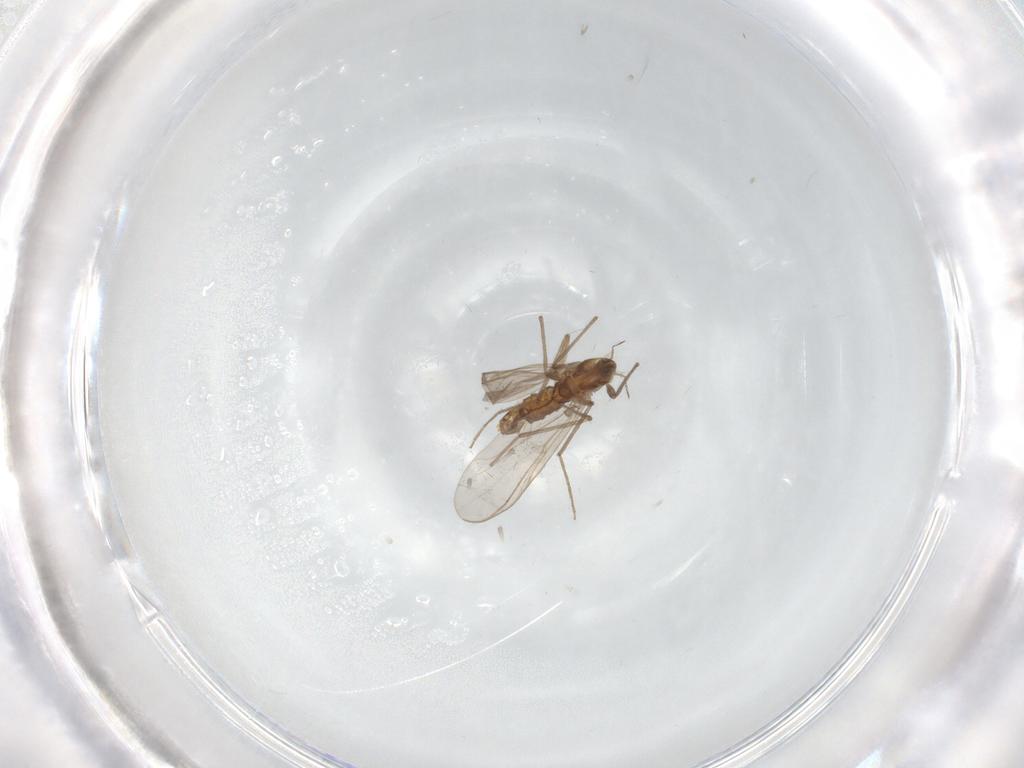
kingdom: Animalia
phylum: Arthropoda
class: Insecta
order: Diptera
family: Chironomidae
